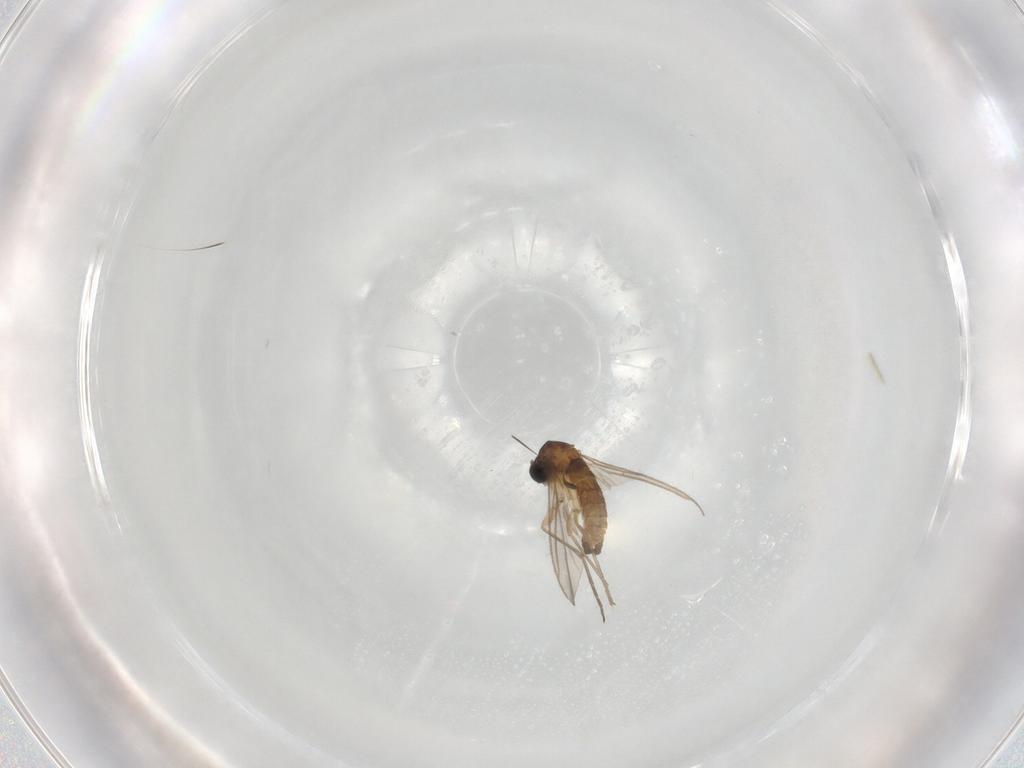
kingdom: Animalia
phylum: Arthropoda
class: Insecta
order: Diptera
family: Sciaridae
